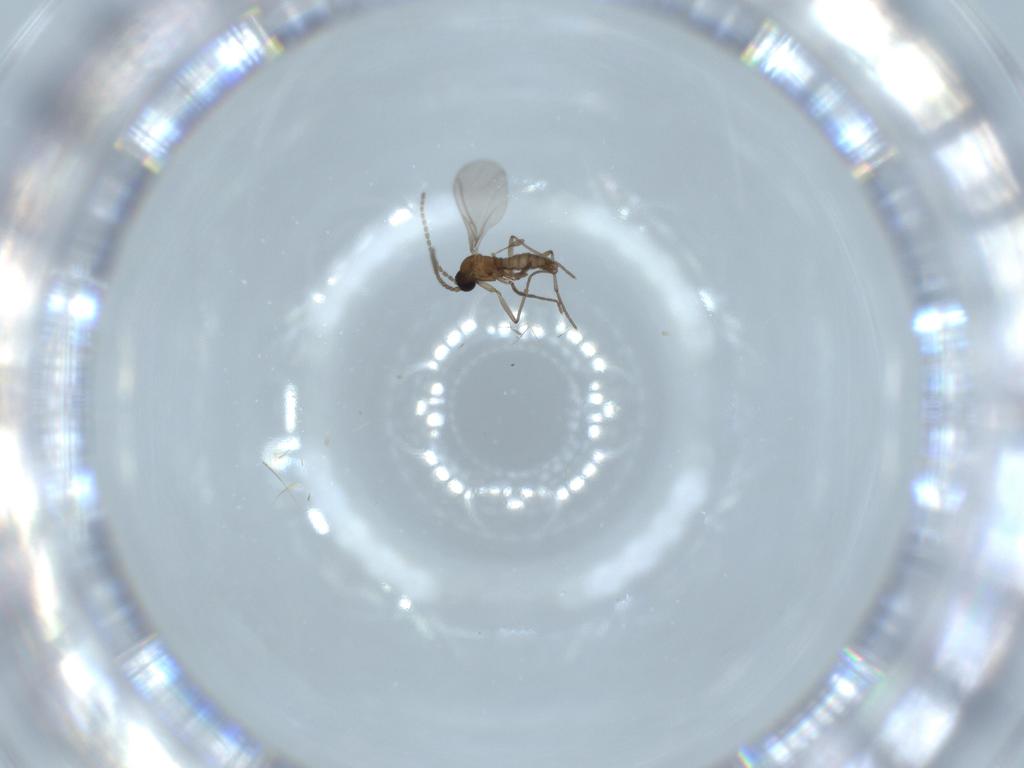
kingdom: Animalia
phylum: Arthropoda
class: Insecta
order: Diptera
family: Sciaridae
